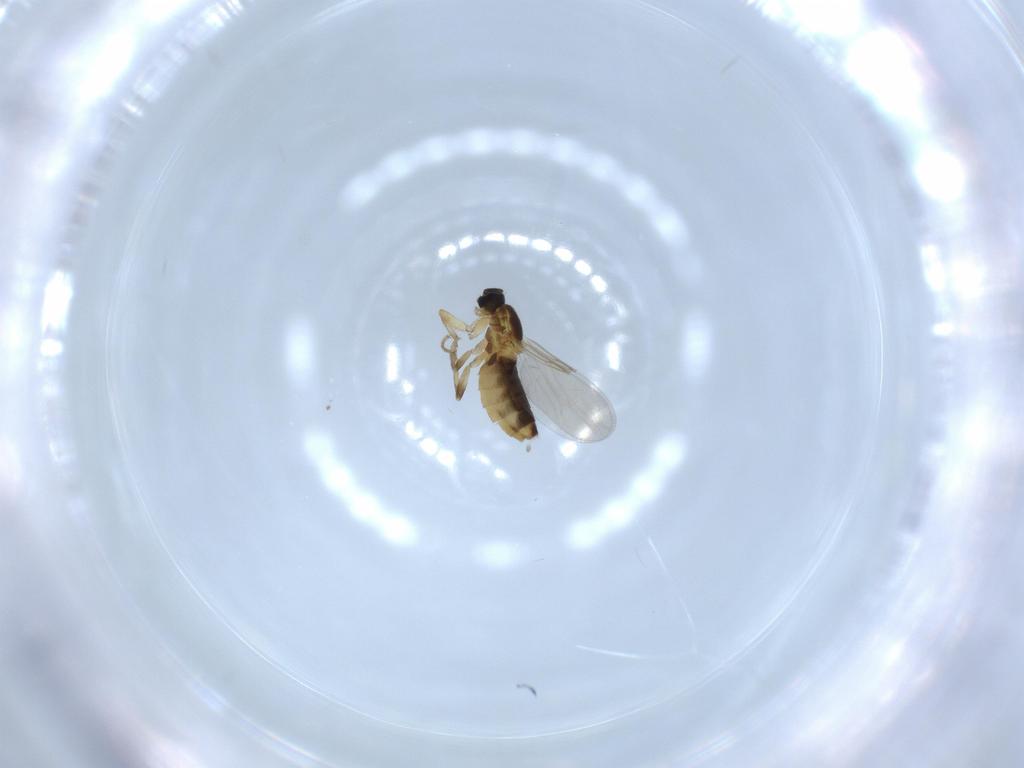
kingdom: Animalia
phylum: Arthropoda
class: Insecta
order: Diptera
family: Scatopsidae
